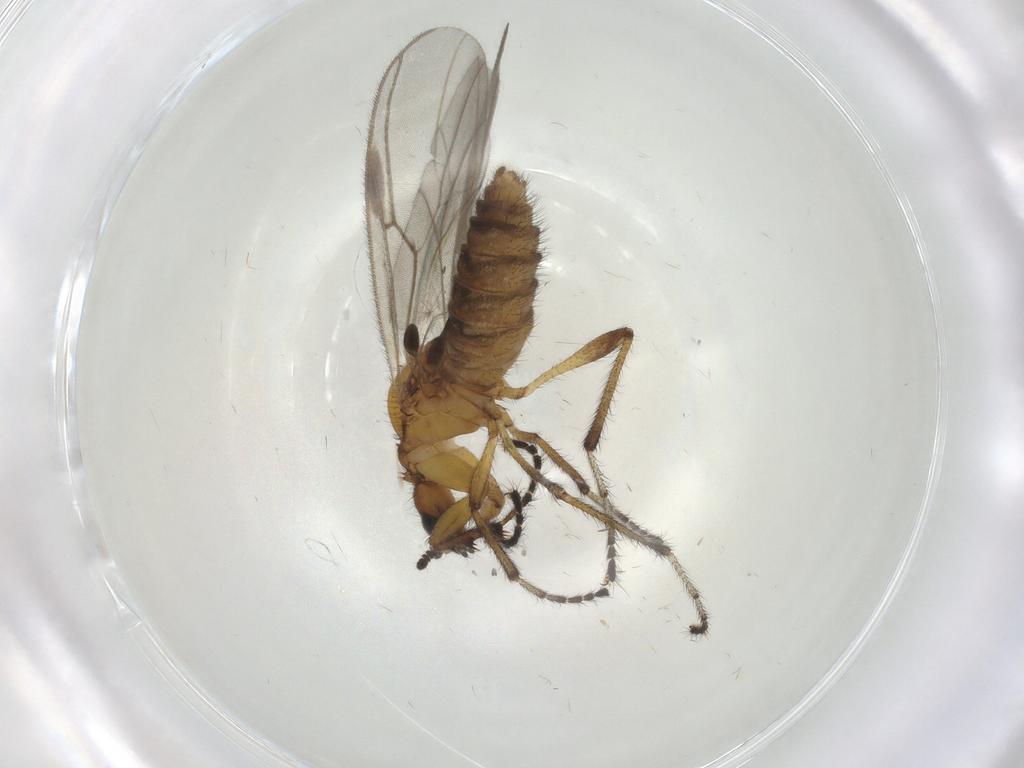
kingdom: Animalia
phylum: Arthropoda
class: Insecta
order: Diptera
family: Bibionidae
